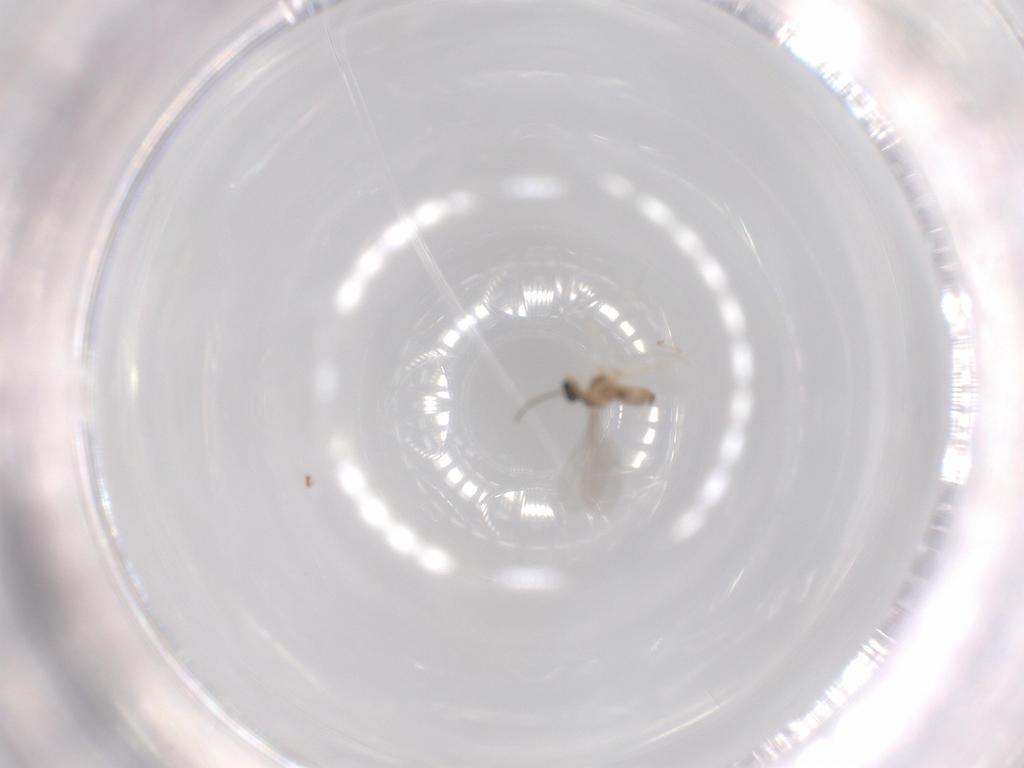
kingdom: Animalia
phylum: Arthropoda
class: Insecta
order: Diptera
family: Cecidomyiidae
